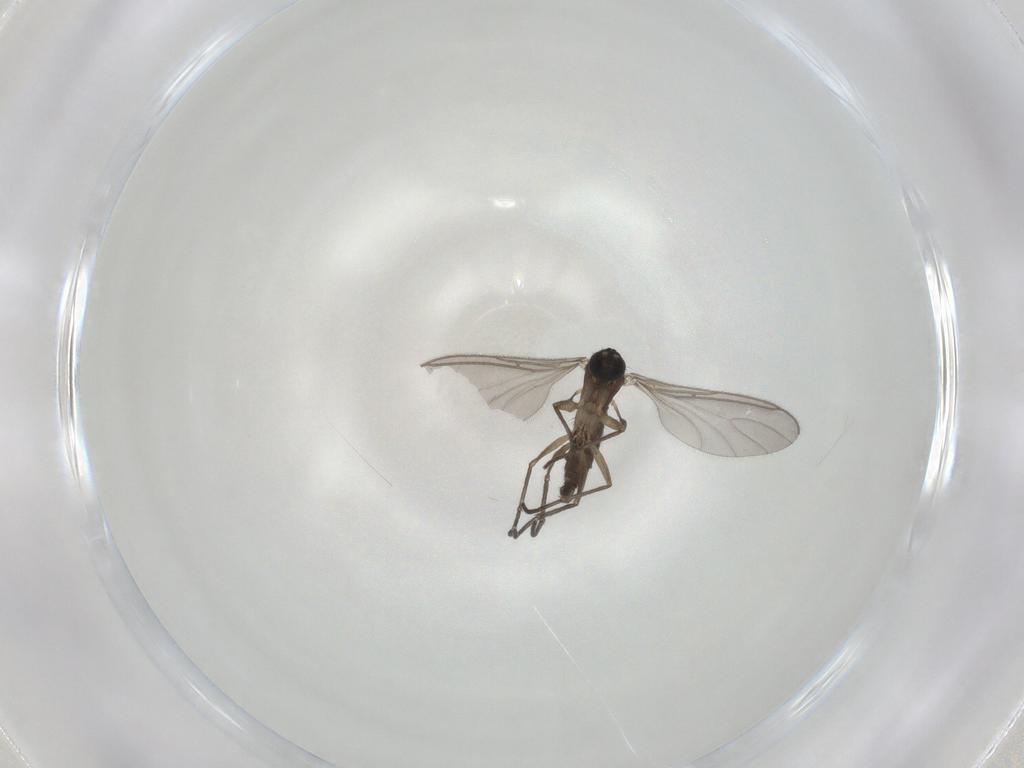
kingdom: Animalia
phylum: Arthropoda
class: Insecta
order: Diptera
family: Sciaridae
